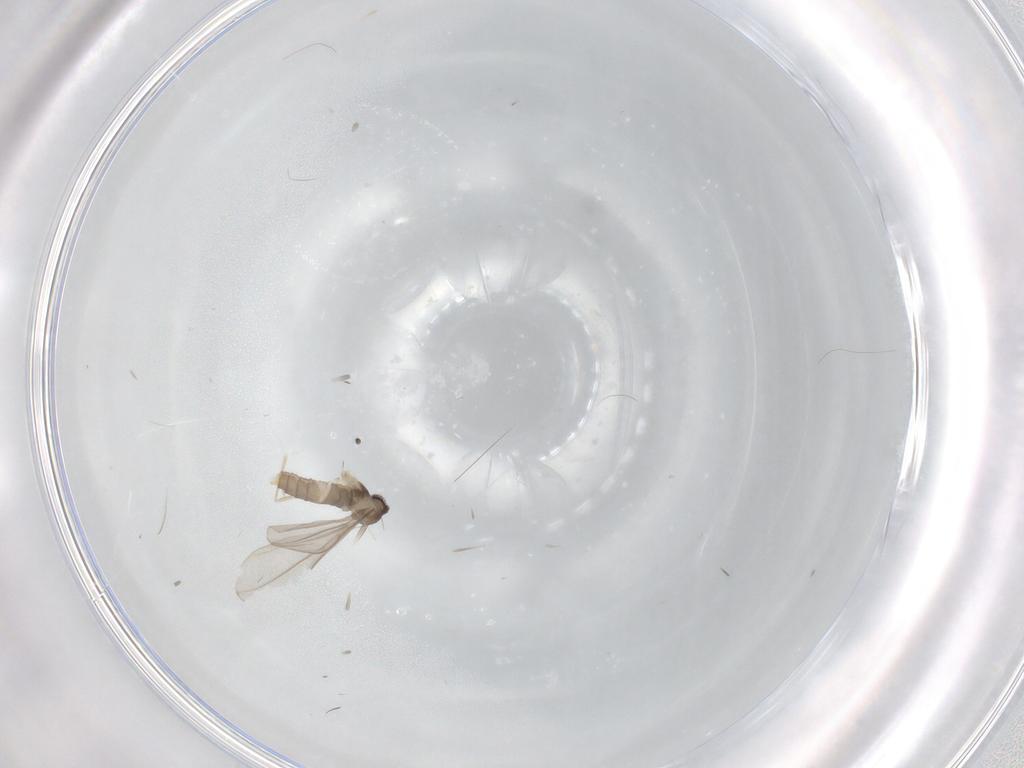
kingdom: Animalia
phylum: Arthropoda
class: Insecta
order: Diptera
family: Cecidomyiidae
